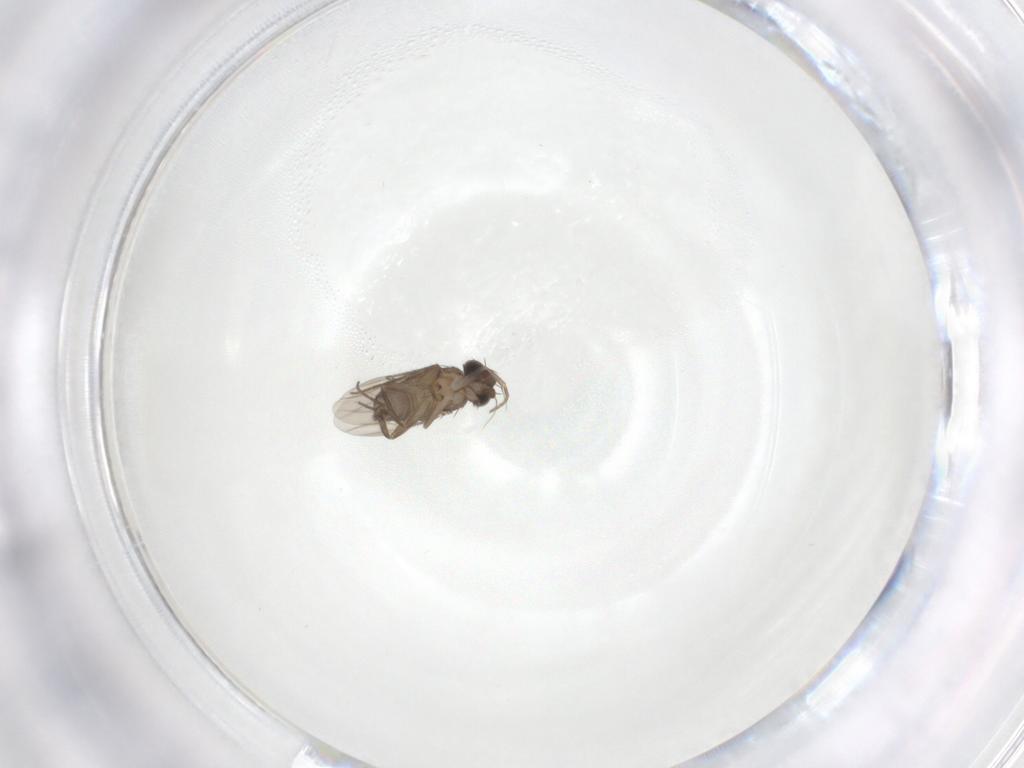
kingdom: Animalia
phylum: Arthropoda
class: Insecta
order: Diptera
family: Phoridae
